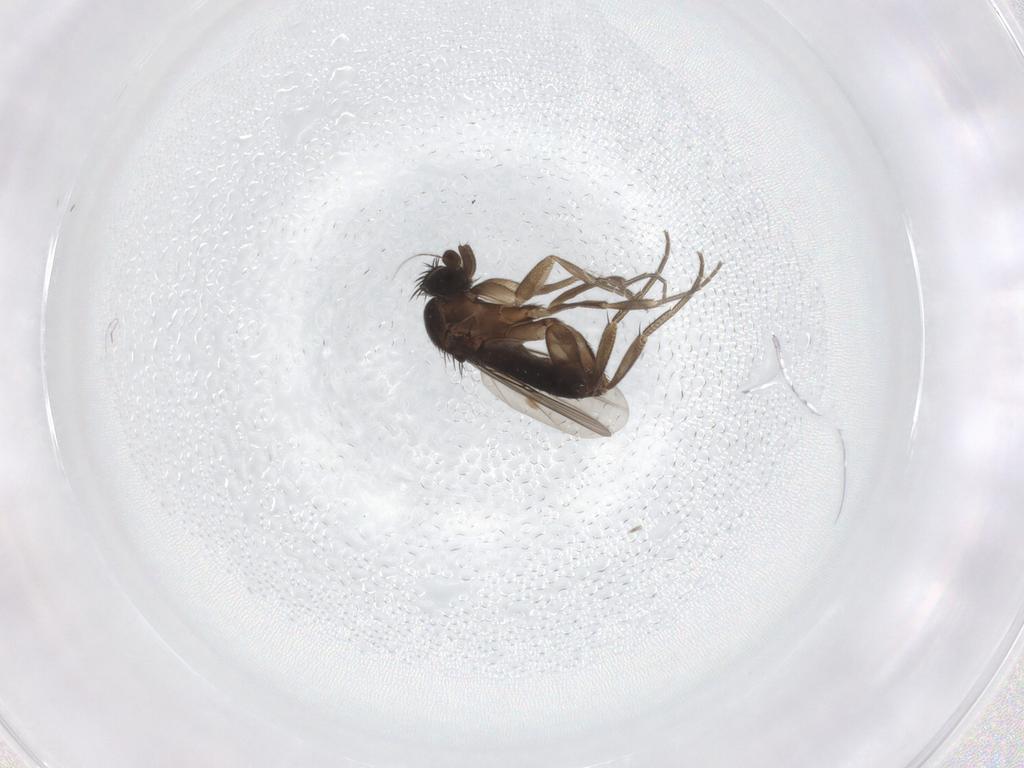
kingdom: Animalia
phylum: Arthropoda
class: Insecta
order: Diptera
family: Phoridae
